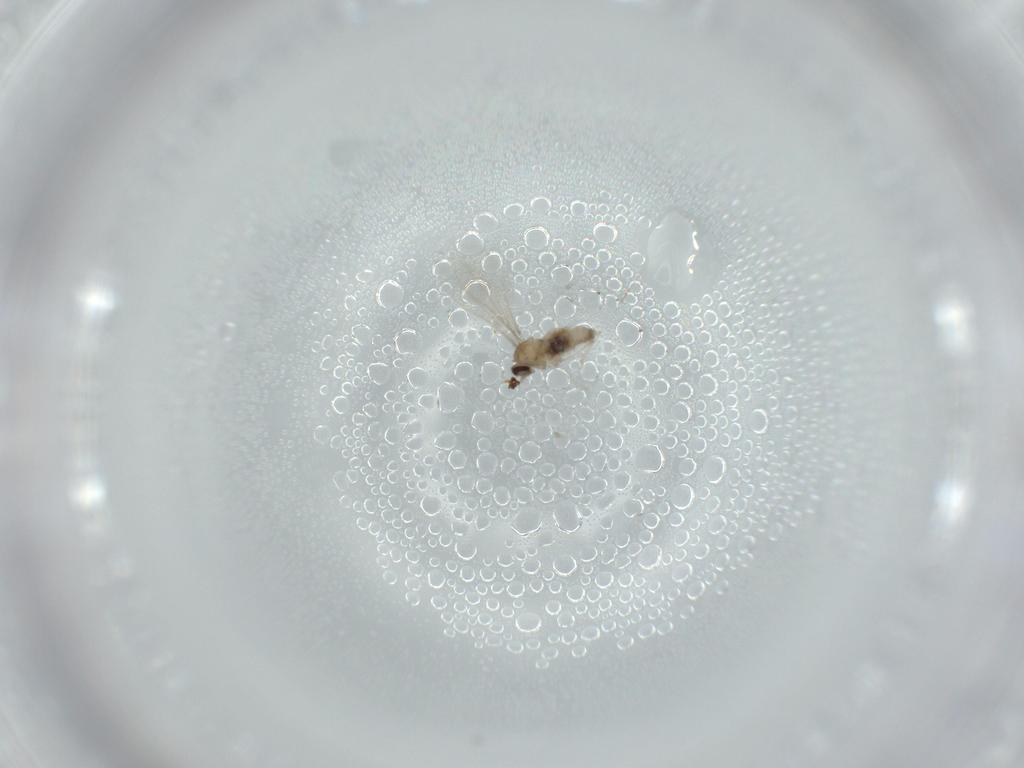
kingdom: Animalia
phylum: Arthropoda
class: Insecta
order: Diptera
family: Cecidomyiidae
